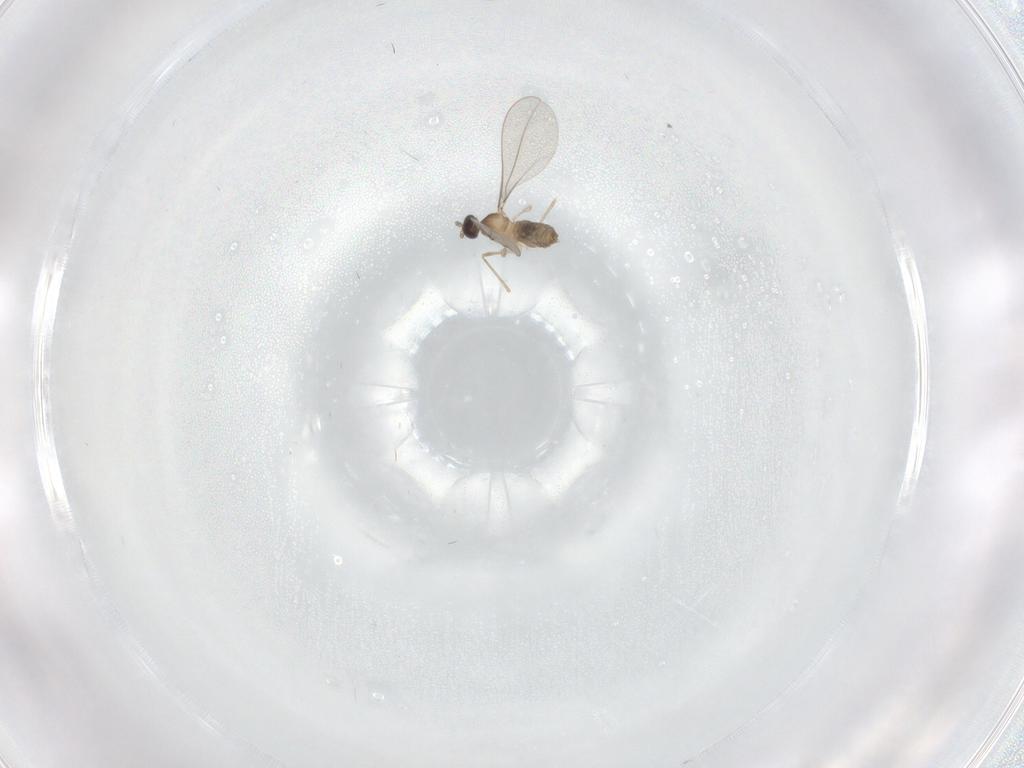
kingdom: Animalia
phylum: Arthropoda
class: Insecta
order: Diptera
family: Cecidomyiidae
